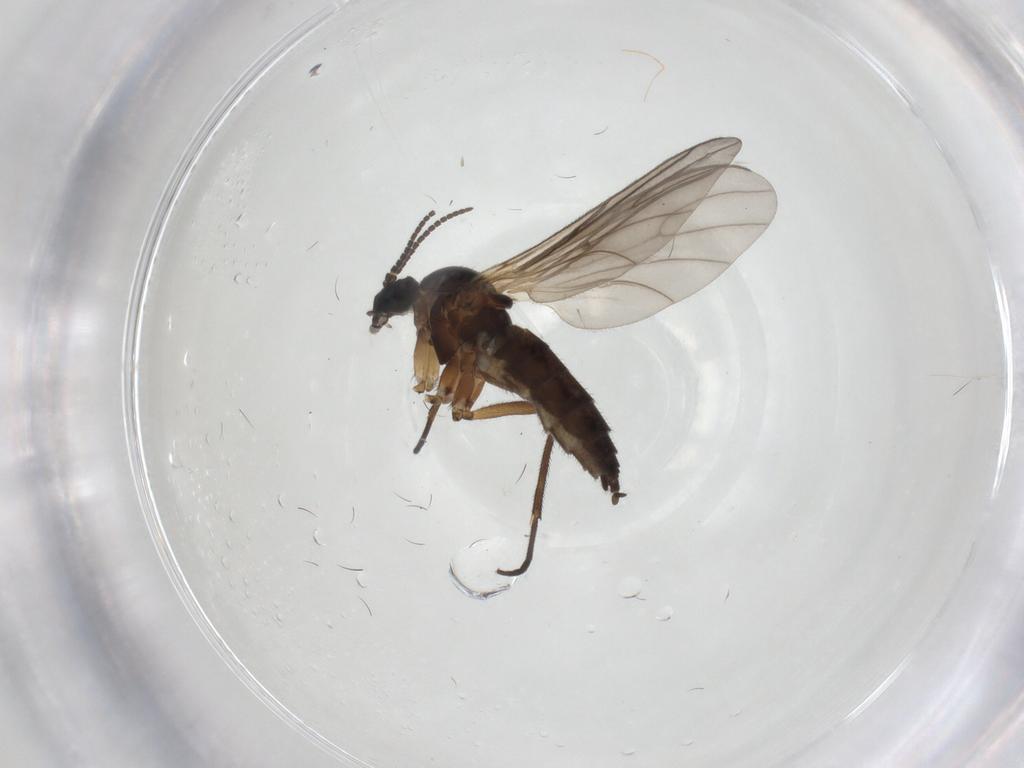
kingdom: Animalia
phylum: Arthropoda
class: Insecta
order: Diptera
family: Sciaridae
